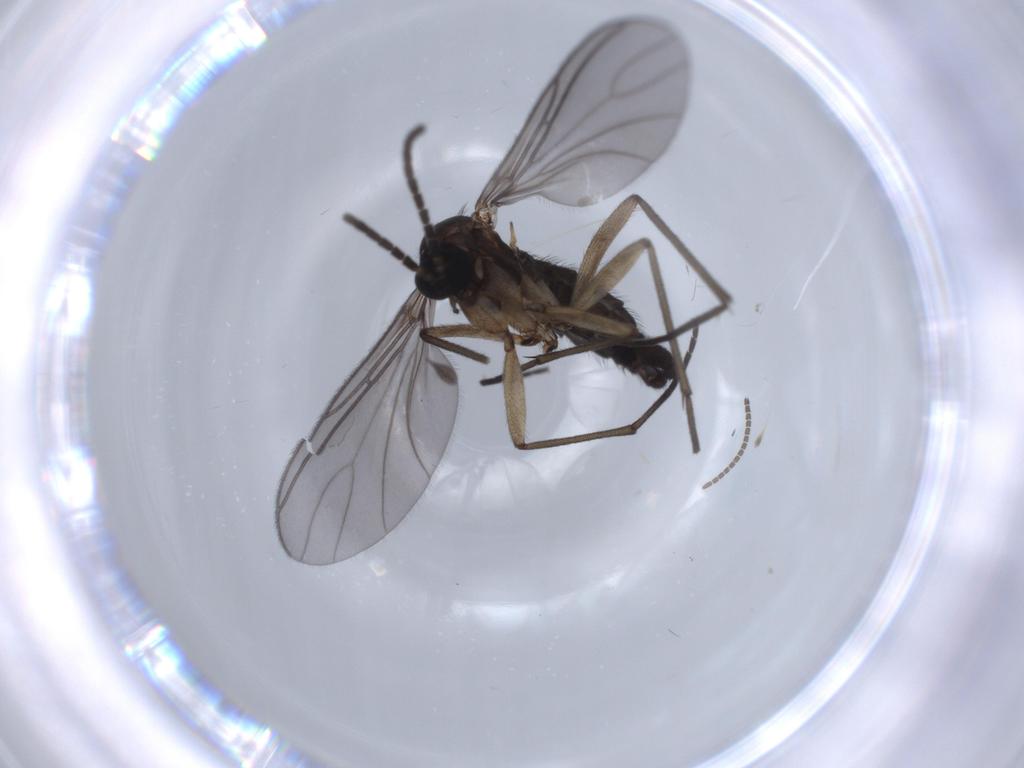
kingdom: Animalia
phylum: Arthropoda
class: Insecta
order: Diptera
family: Sciaridae
